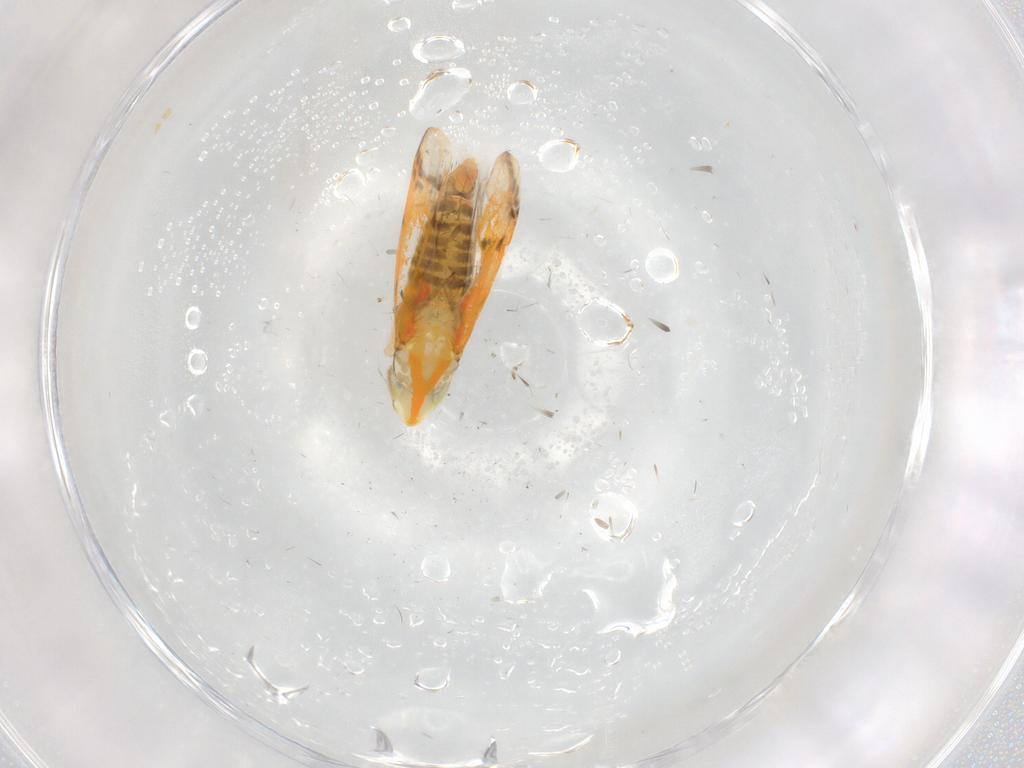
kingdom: Animalia
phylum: Arthropoda
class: Insecta
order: Hemiptera
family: Cicadellidae
